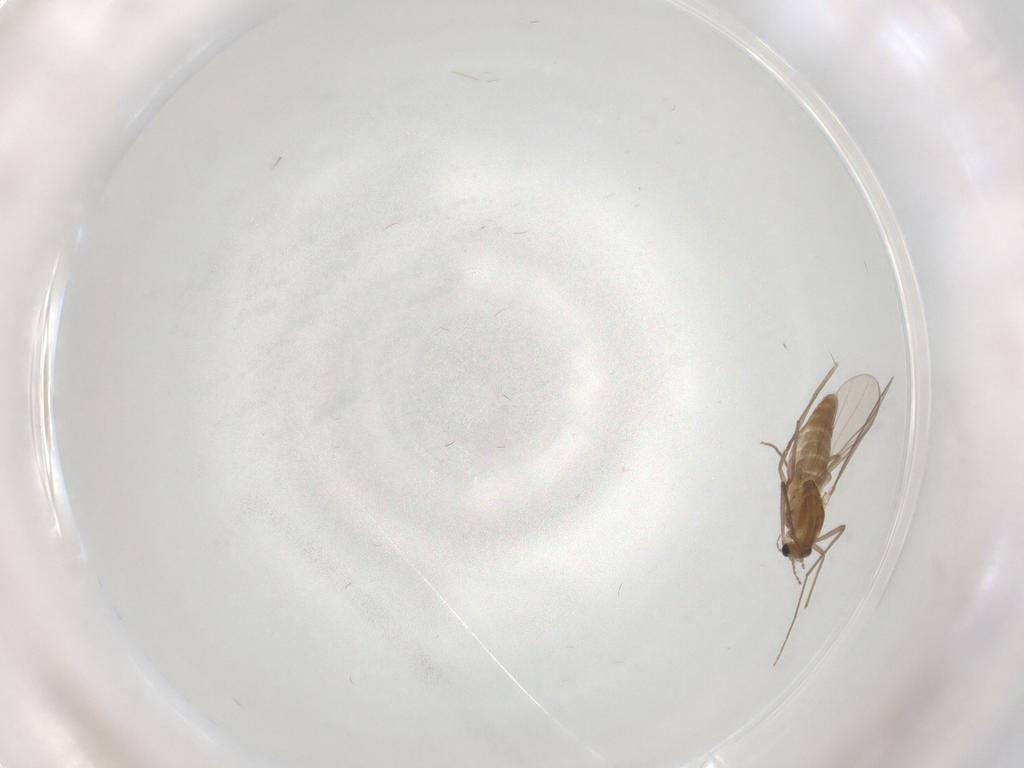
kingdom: Animalia
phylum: Arthropoda
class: Insecta
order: Diptera
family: Chironomidae
